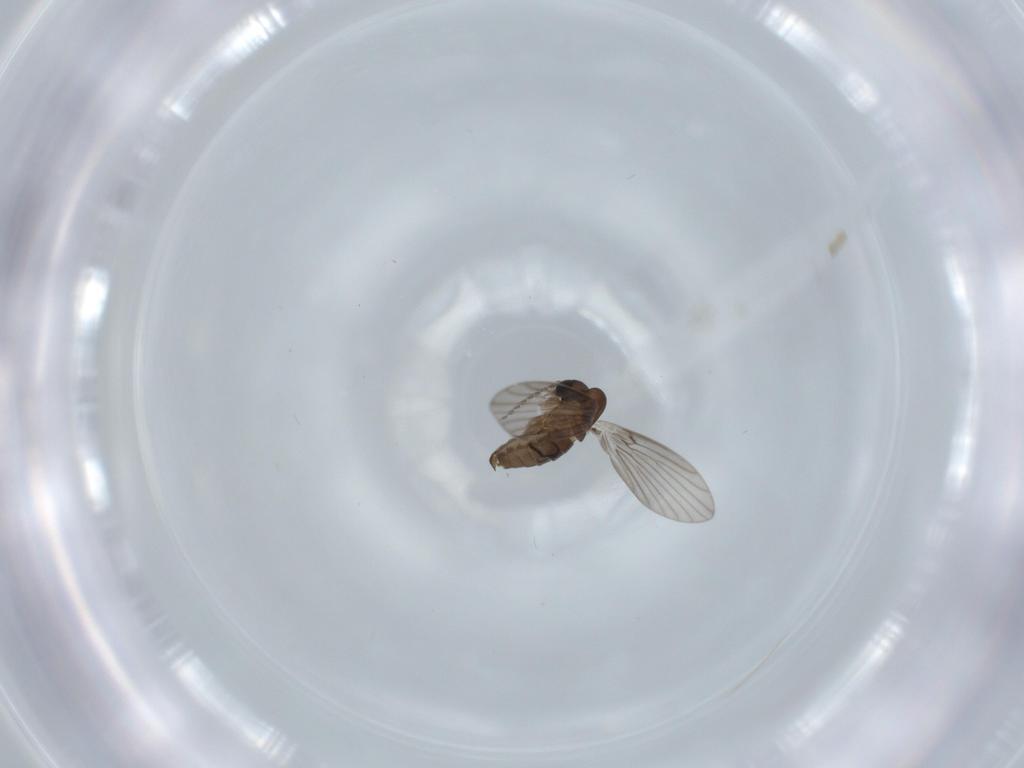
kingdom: Animalia
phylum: Arthropoda
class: Insecta
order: Diptera
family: Psychodidae
